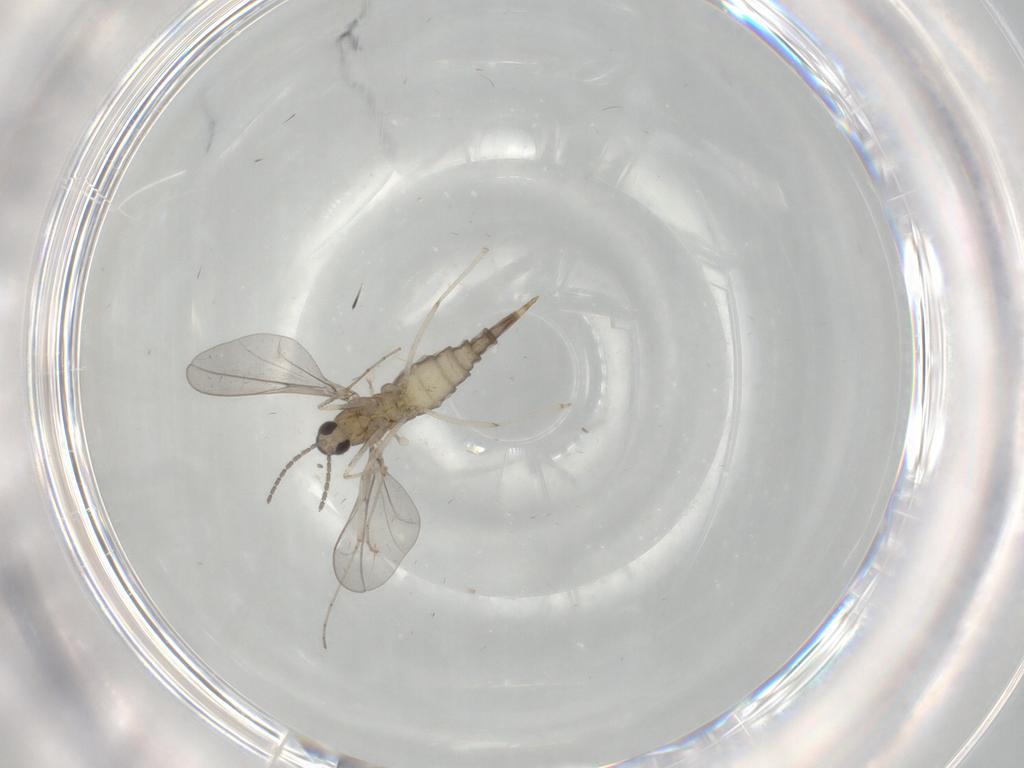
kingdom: Animalia
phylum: Arthropoda
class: Insecta
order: Diptera
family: Cecidomyiidae
